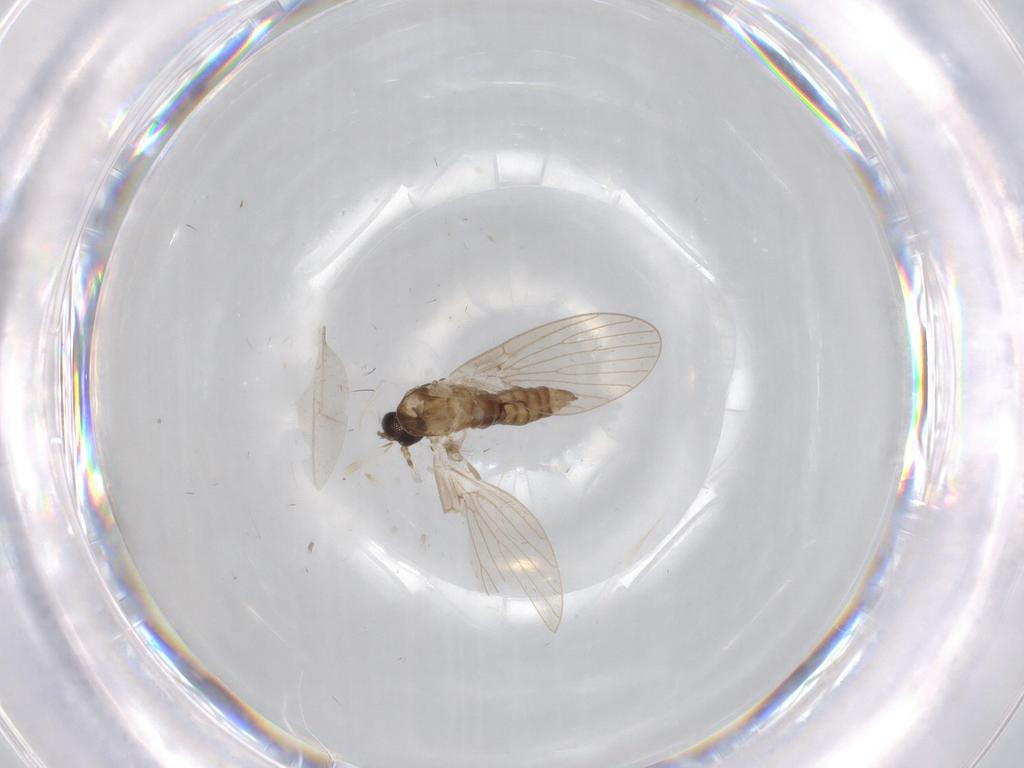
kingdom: Animalia
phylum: Arthropoda
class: Insecta
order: Diptera
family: Psychodidae
